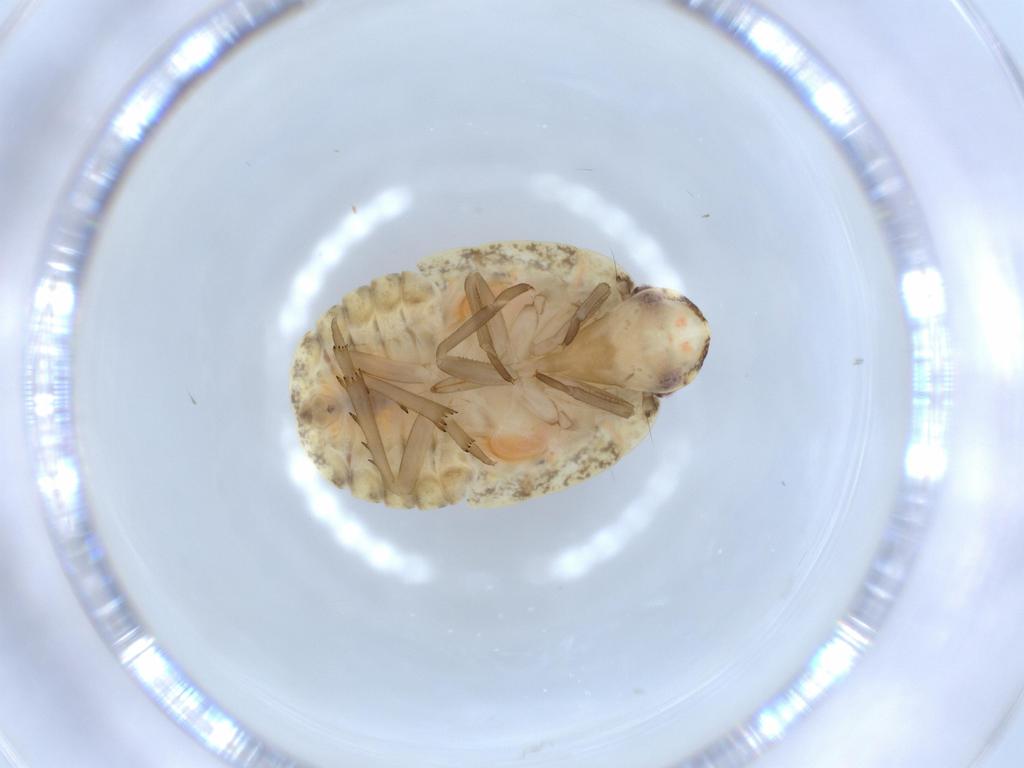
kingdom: Animalia
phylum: Arthropoda
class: Insecta
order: Hemiptera
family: Flatidae
